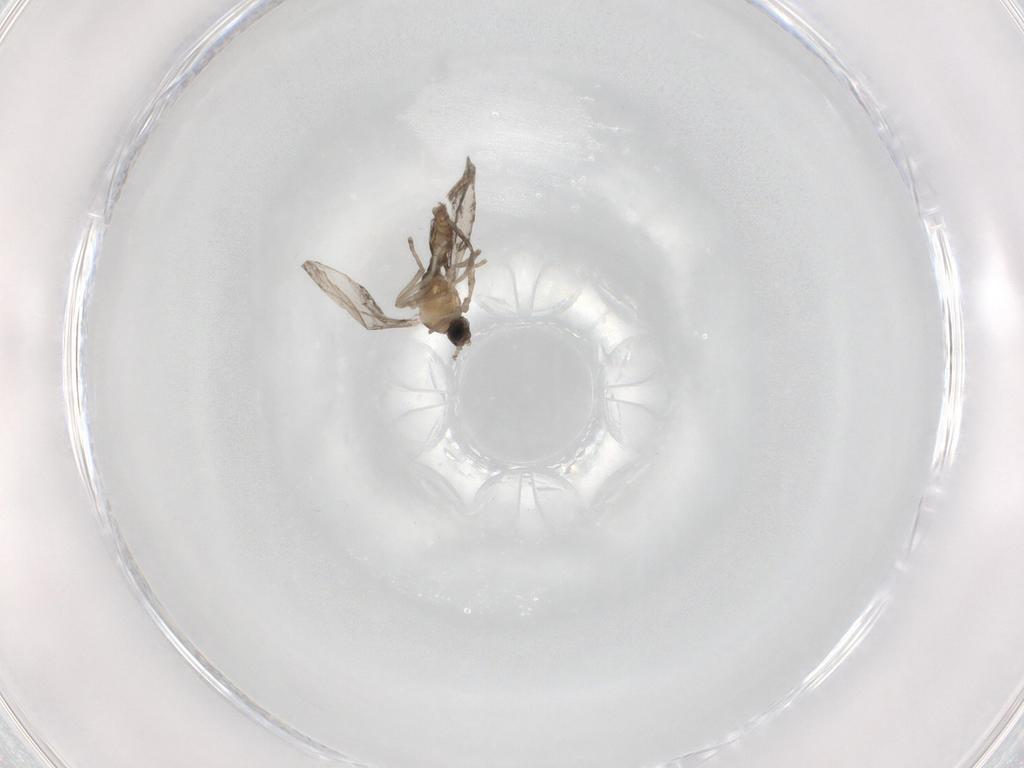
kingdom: Animalia
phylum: Arthropoda
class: Insecta
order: Diptera
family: Cecidomyiidae
